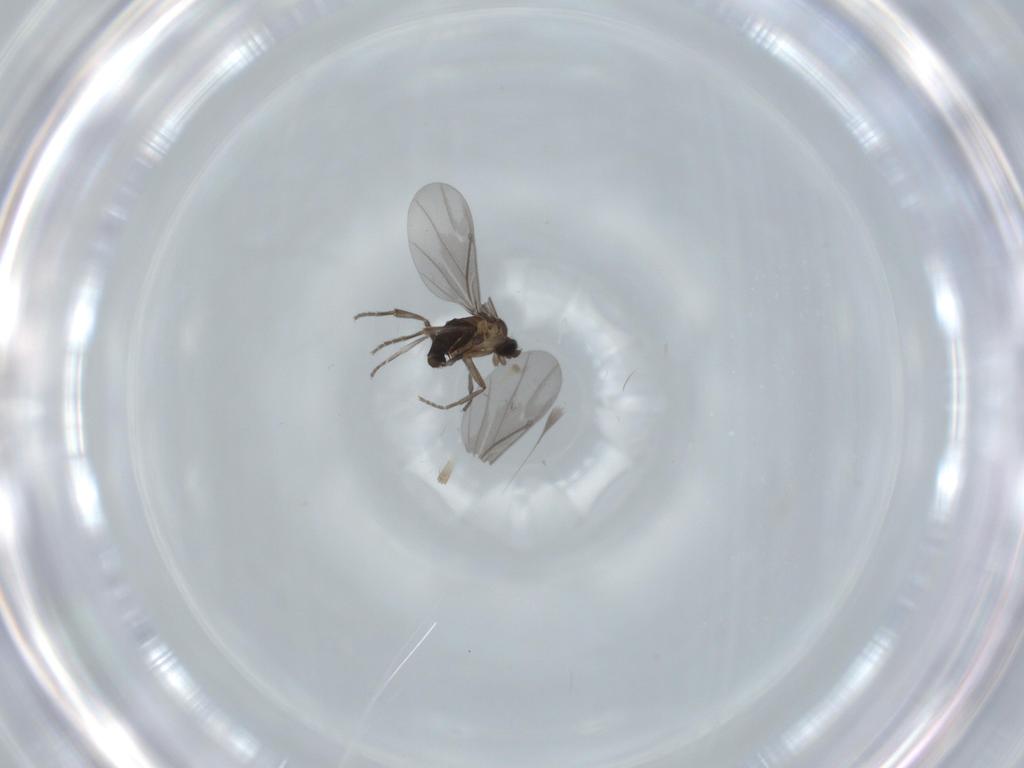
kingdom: Animalia
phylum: Arthropoda
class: Insecta
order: Diptera
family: Phoridae
